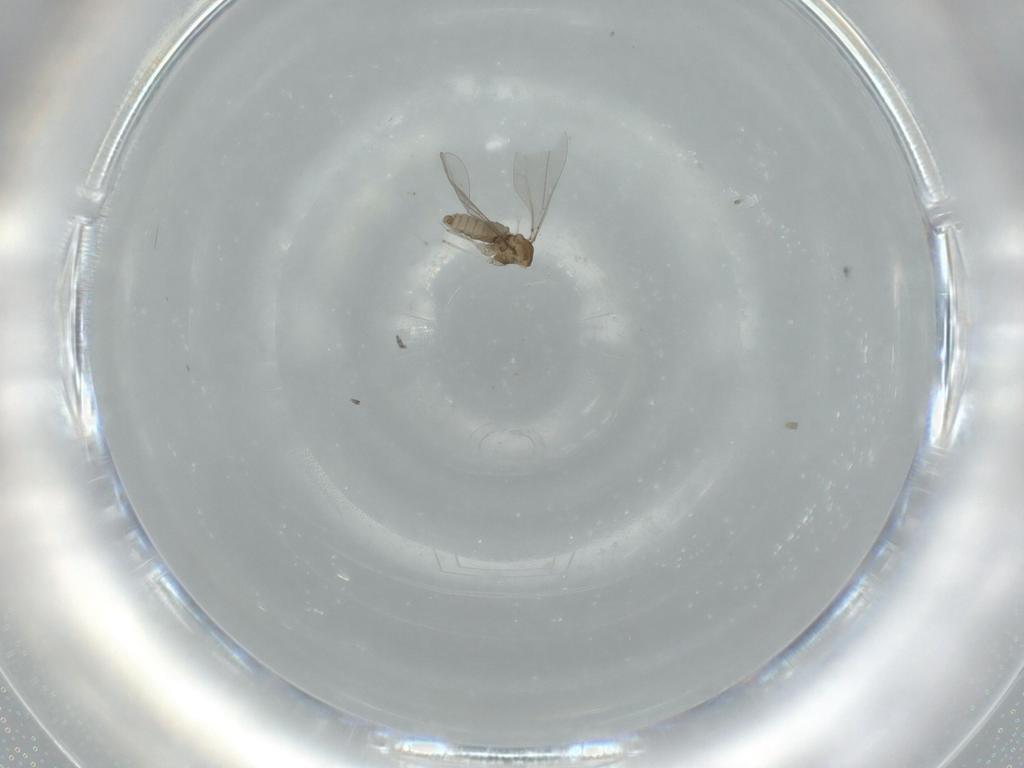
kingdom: Animalia
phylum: Arthropoda
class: Insecta
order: Diptera
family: Cecidomyiidae
